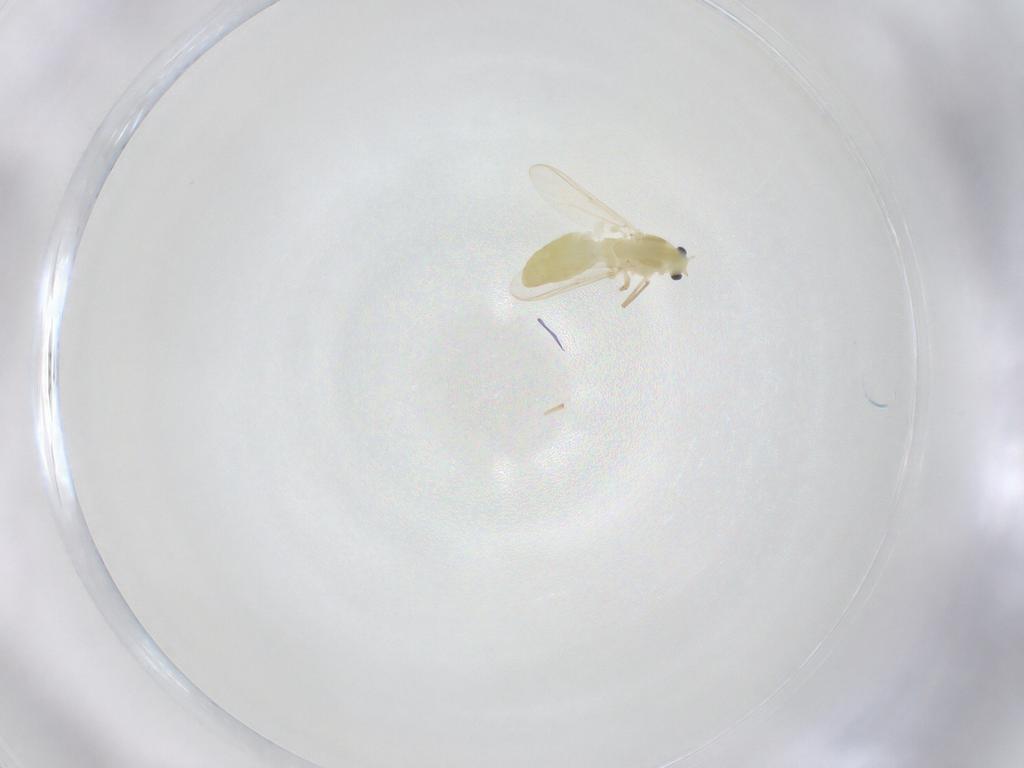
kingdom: Animalia
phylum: Arthropoda
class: Insecta
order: Diptera
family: Chironomidae
